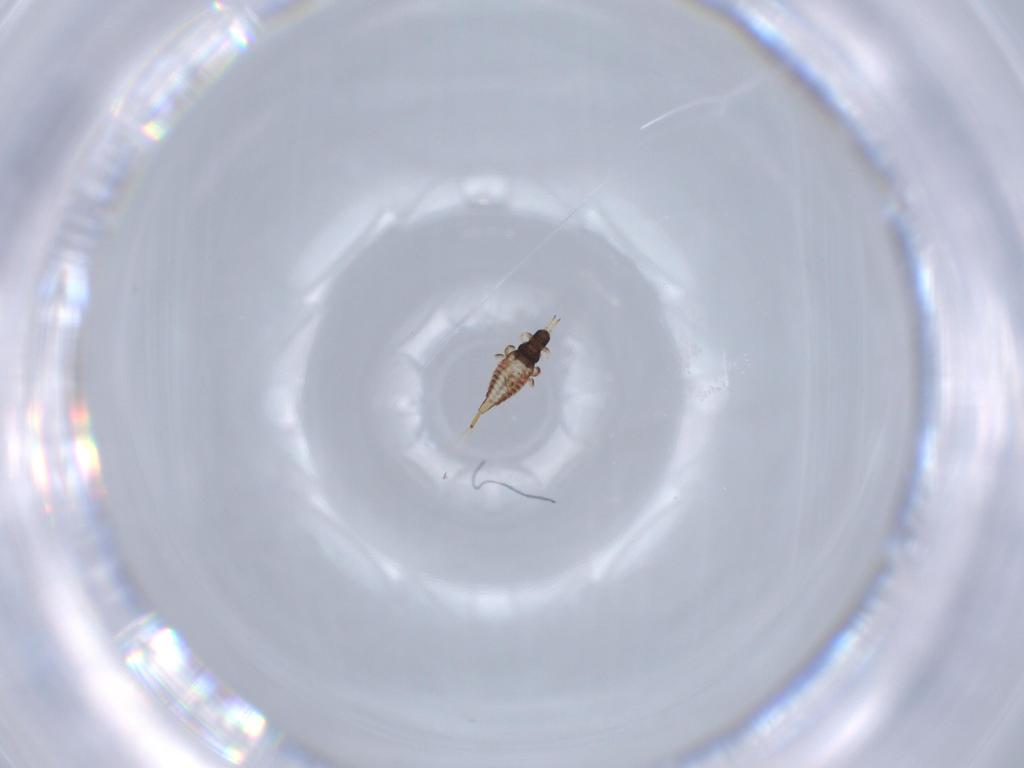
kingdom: Animalia
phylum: Arthropoda
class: Insecta
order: Thysanoptera
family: Phlaeothripidae
